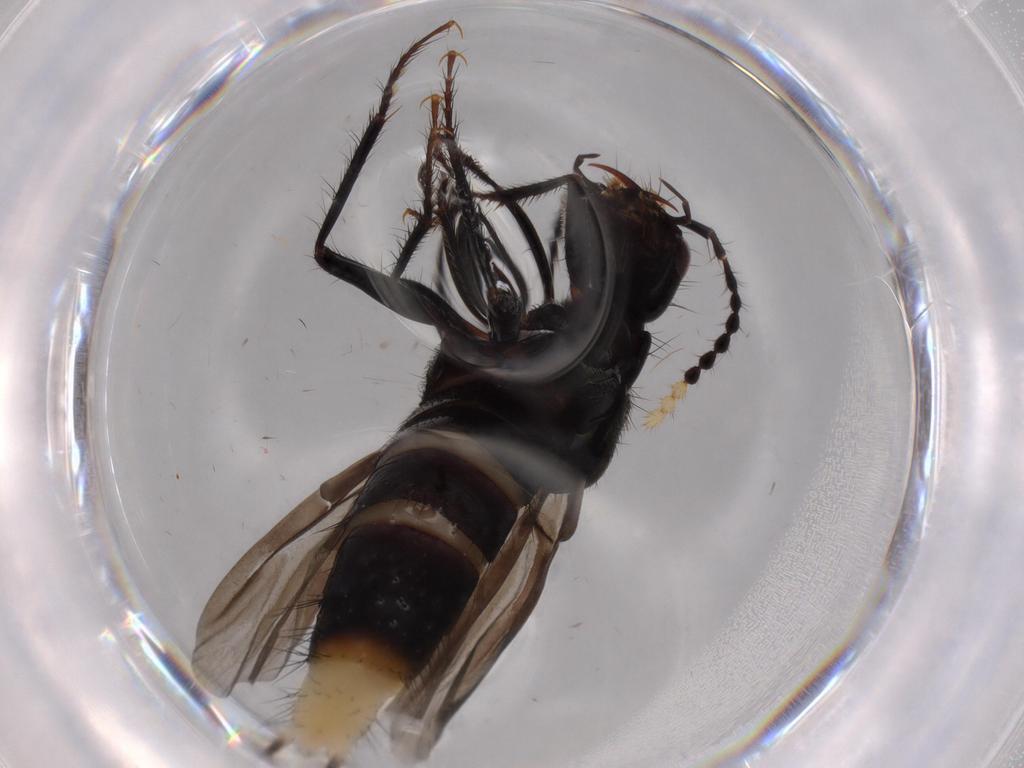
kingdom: Animalia
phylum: Arthropoda
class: Insecta
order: Coleoptera
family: Staphylinidae
